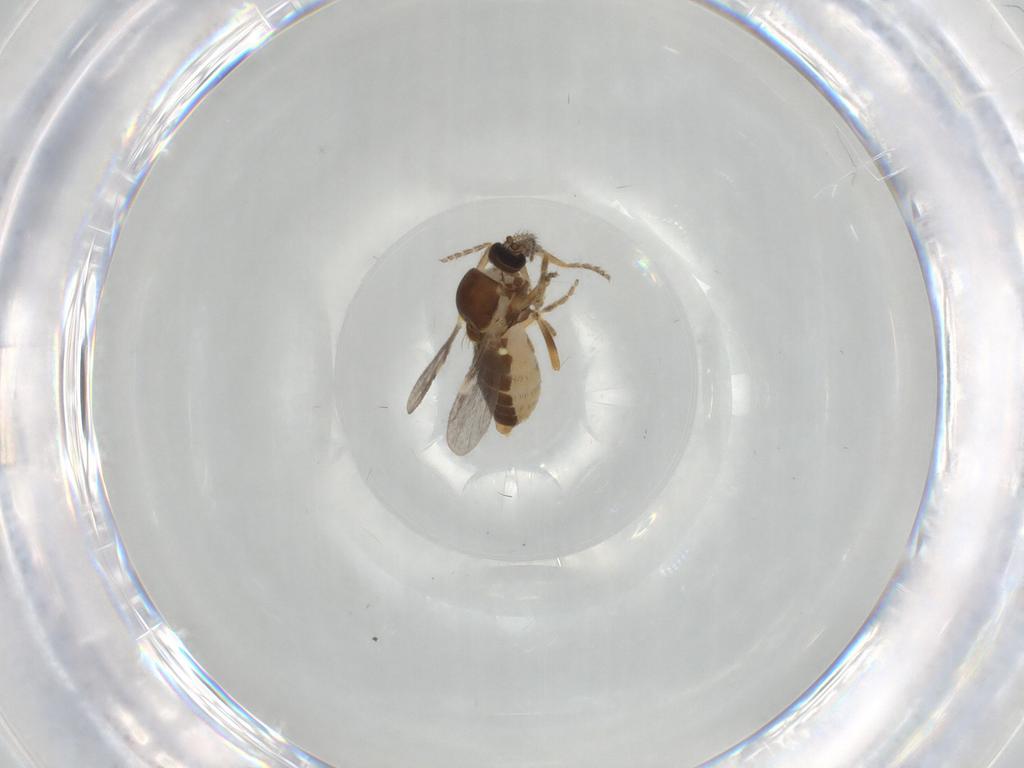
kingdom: Animalia
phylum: Arthropoda
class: Insecta
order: Diptera
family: Ceratopogonidae
